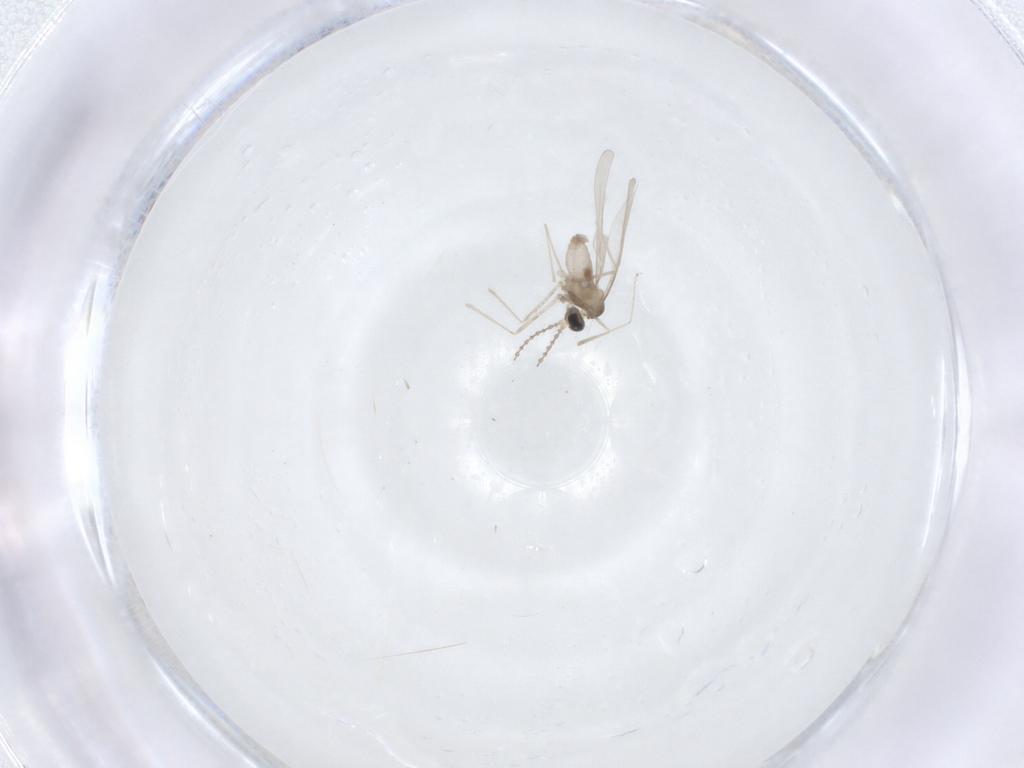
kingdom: Animalia
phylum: Arthropoda
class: Insecta
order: Diptera
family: Cecidomyiidae
